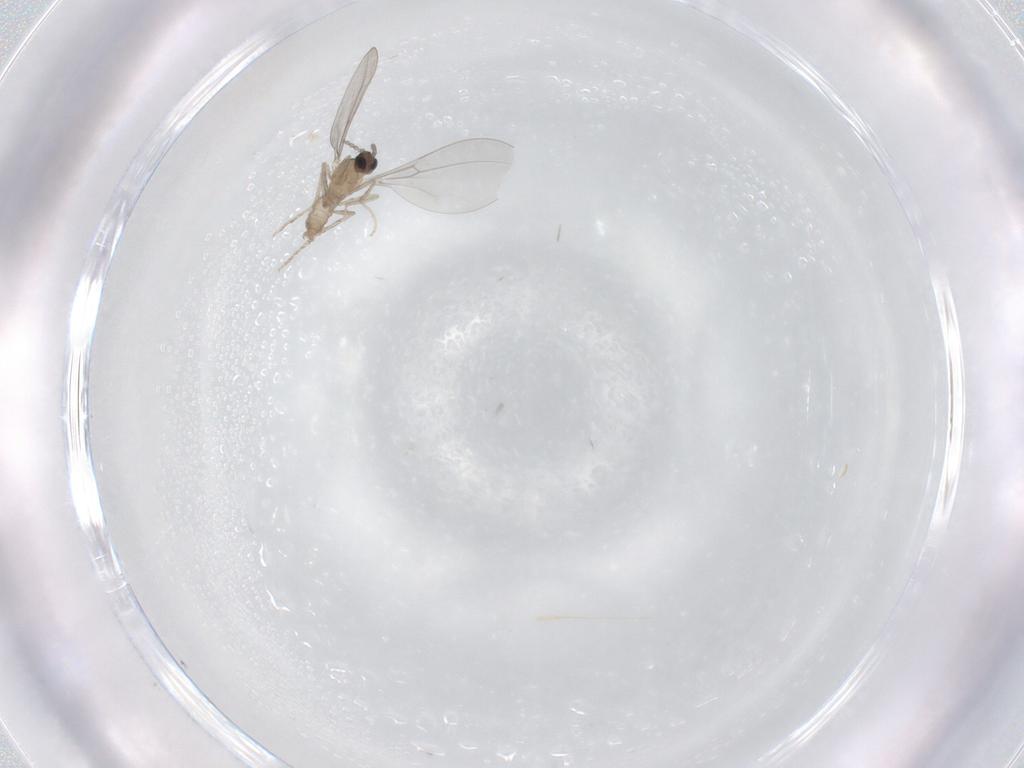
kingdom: Animalia
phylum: Arthropoda
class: Insecta
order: Diptera
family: Cecidomyiidae
